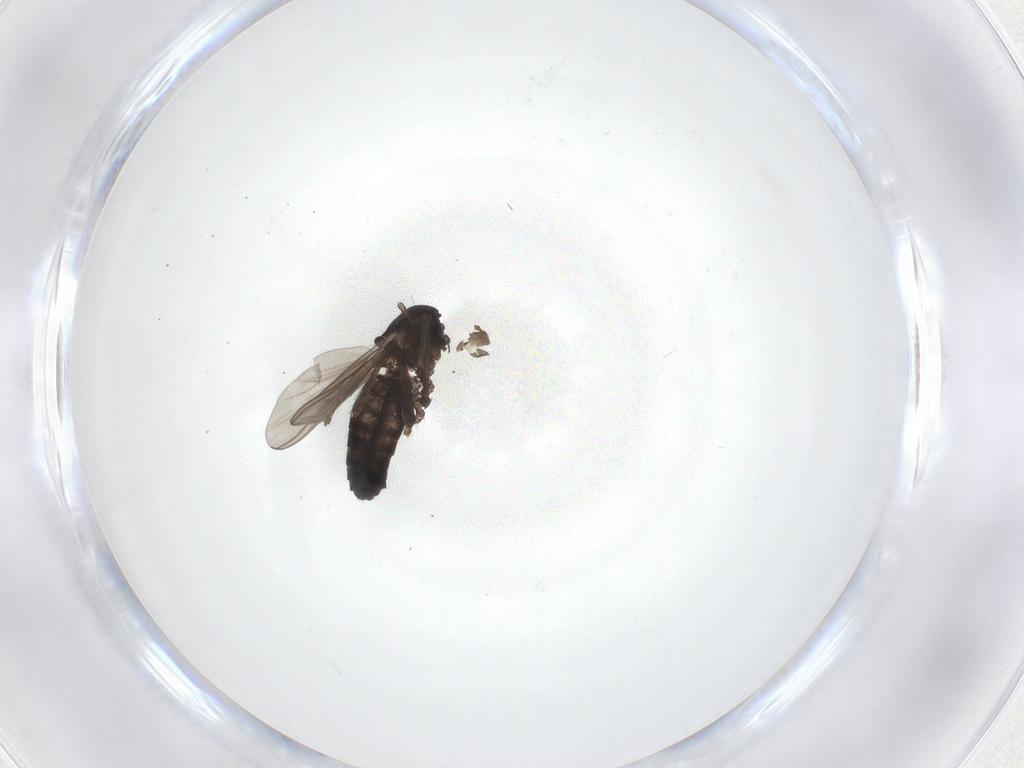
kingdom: Animalia
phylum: Arthropoda
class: Insecta
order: Diptera
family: Chironomidae
